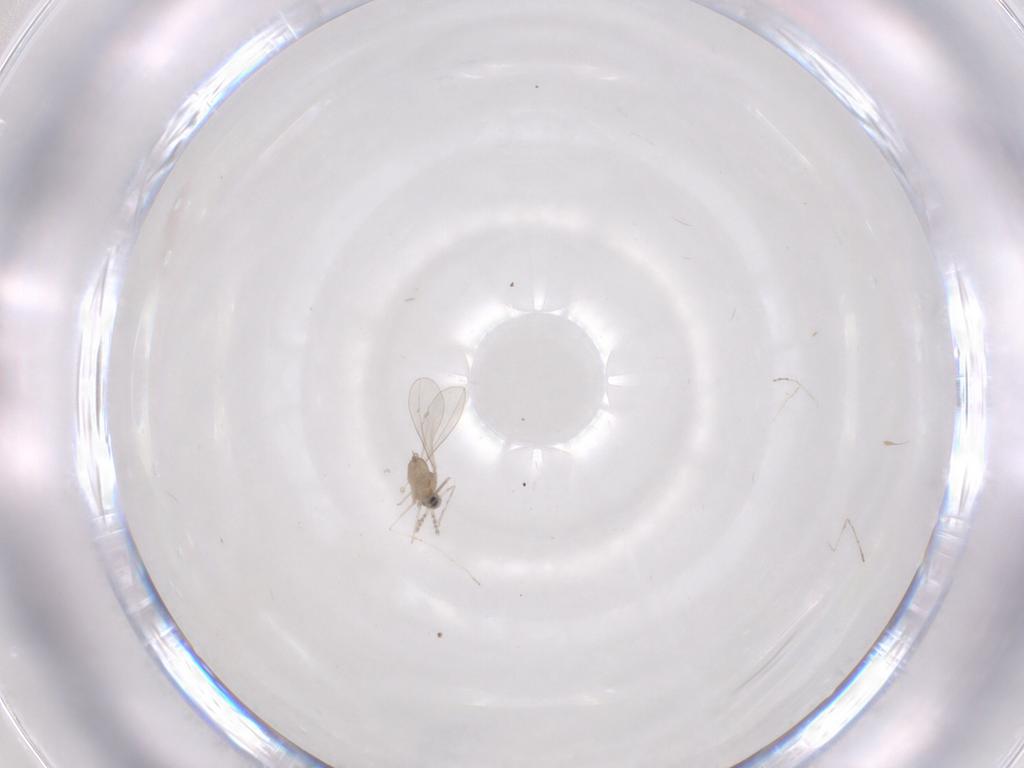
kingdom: Animalia
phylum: Arthropoda
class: Insecta
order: Diptera
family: Cecidomyiidae
